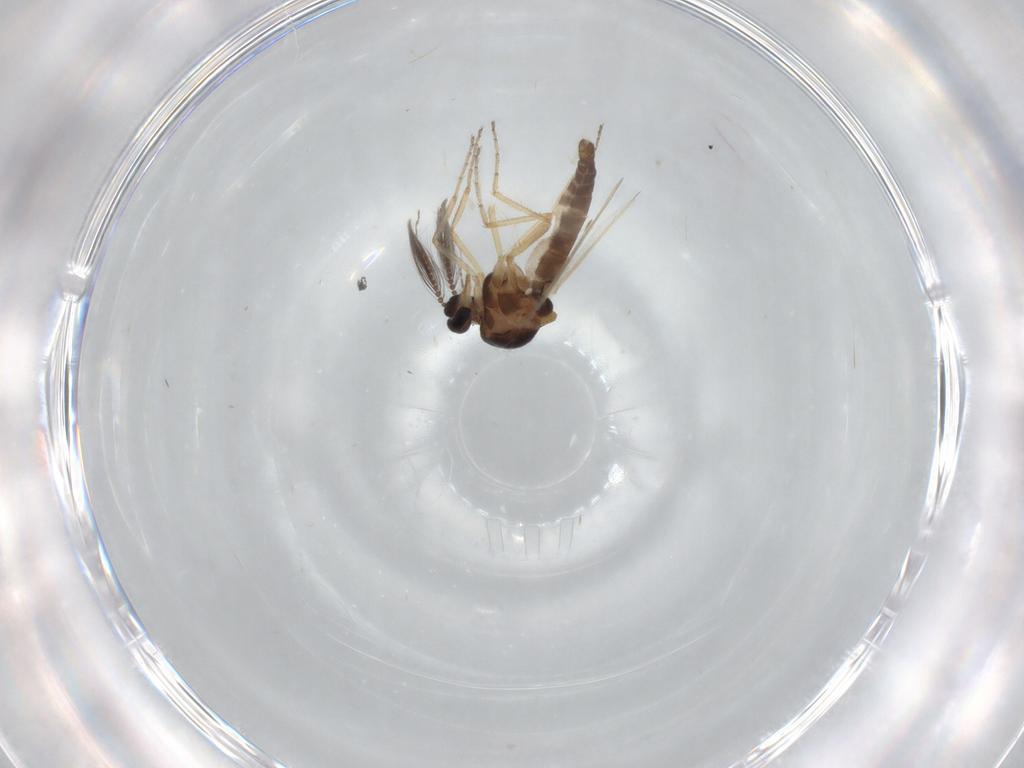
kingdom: Animalia
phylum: Arthropoda
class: Insecta
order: Diptera
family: Ceratopogonidae
